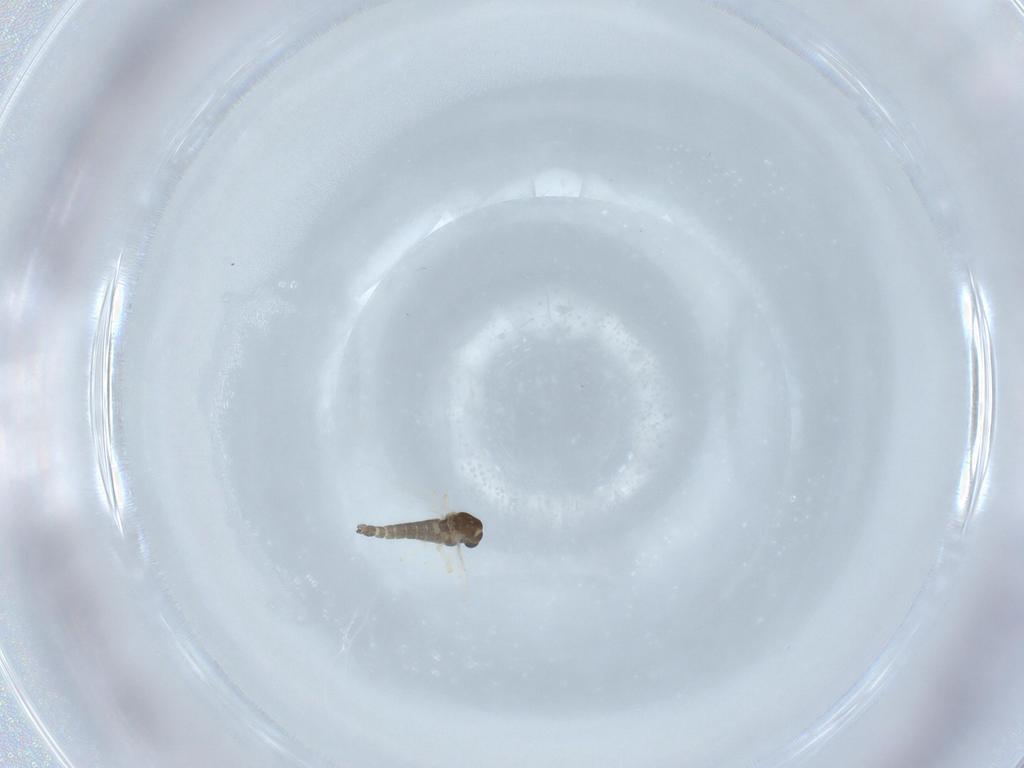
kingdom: Animalia
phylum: Arthropoda
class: Insecta
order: Diptera
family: Chironomidae
